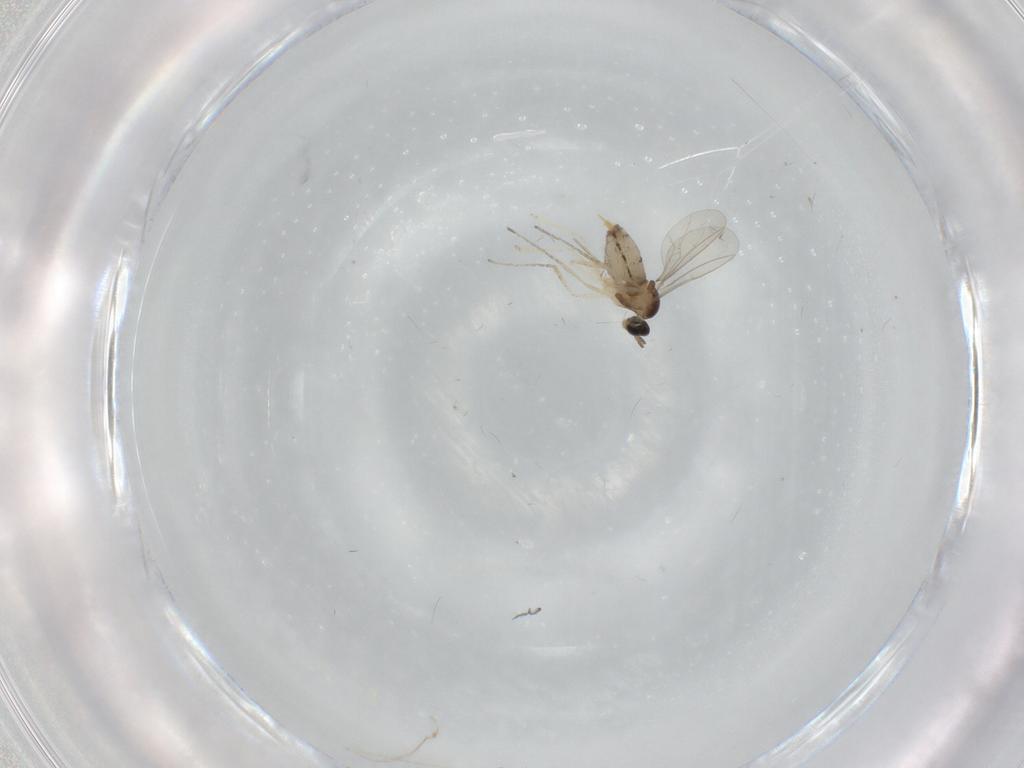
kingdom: Animalia
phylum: Arthropoda
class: Insecta
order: Diptera
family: Cecidomyiidae
